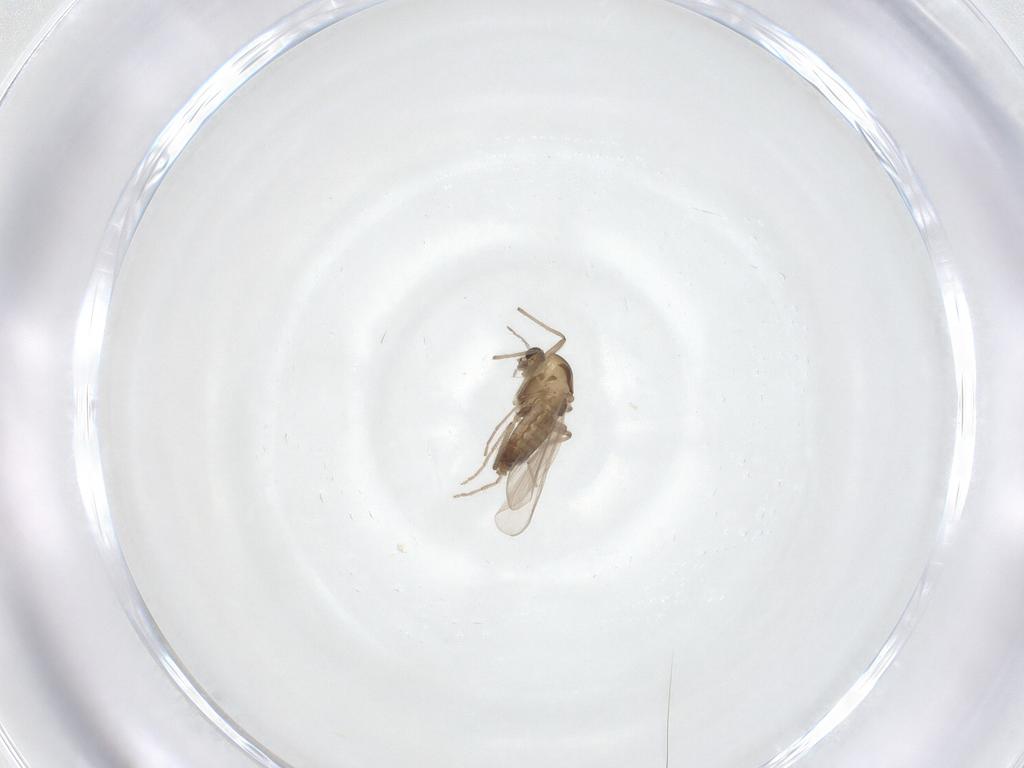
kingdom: Animalia
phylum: Arthropoda
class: Insecta
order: Diptera
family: Chironomidae
